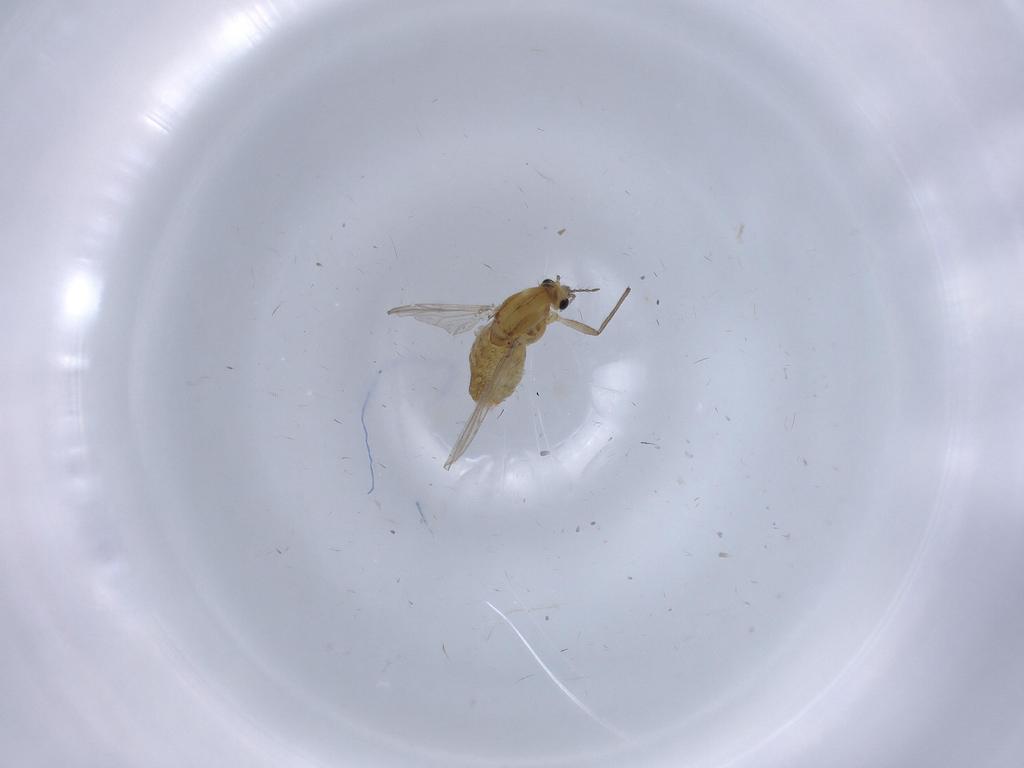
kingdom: Animalia
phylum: Arthropoda
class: Insecta
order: Diptera
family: Chironomidae
